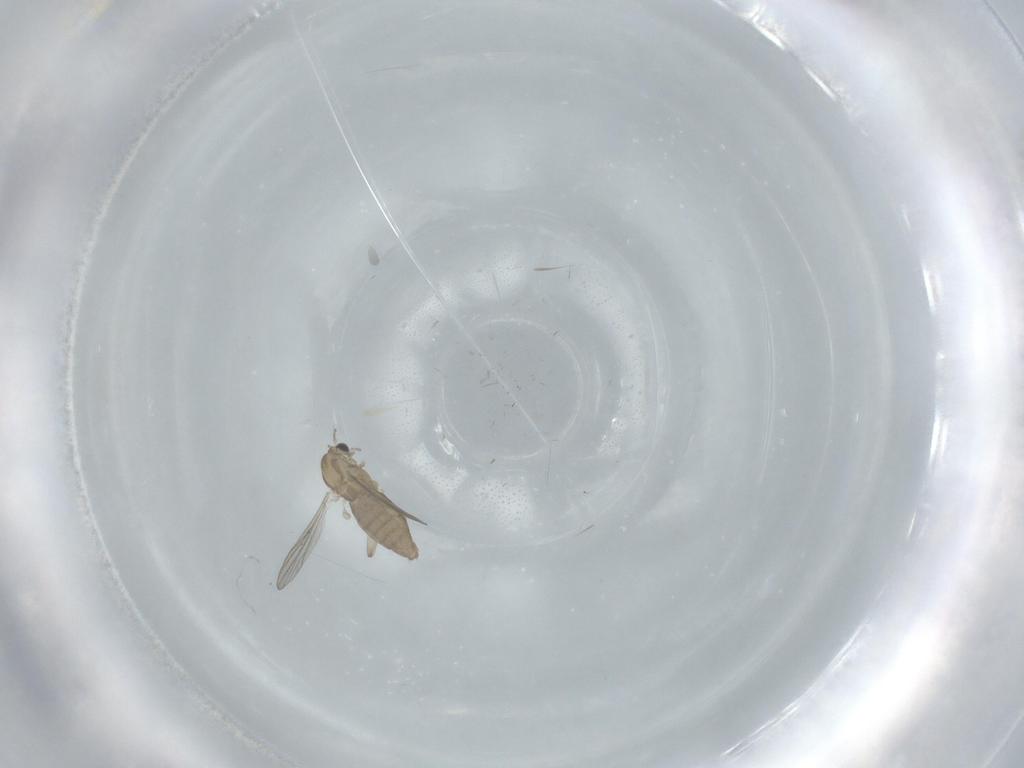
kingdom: Animalia
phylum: Arthropoda
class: Insecta
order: Diptera
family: Chironomidae
